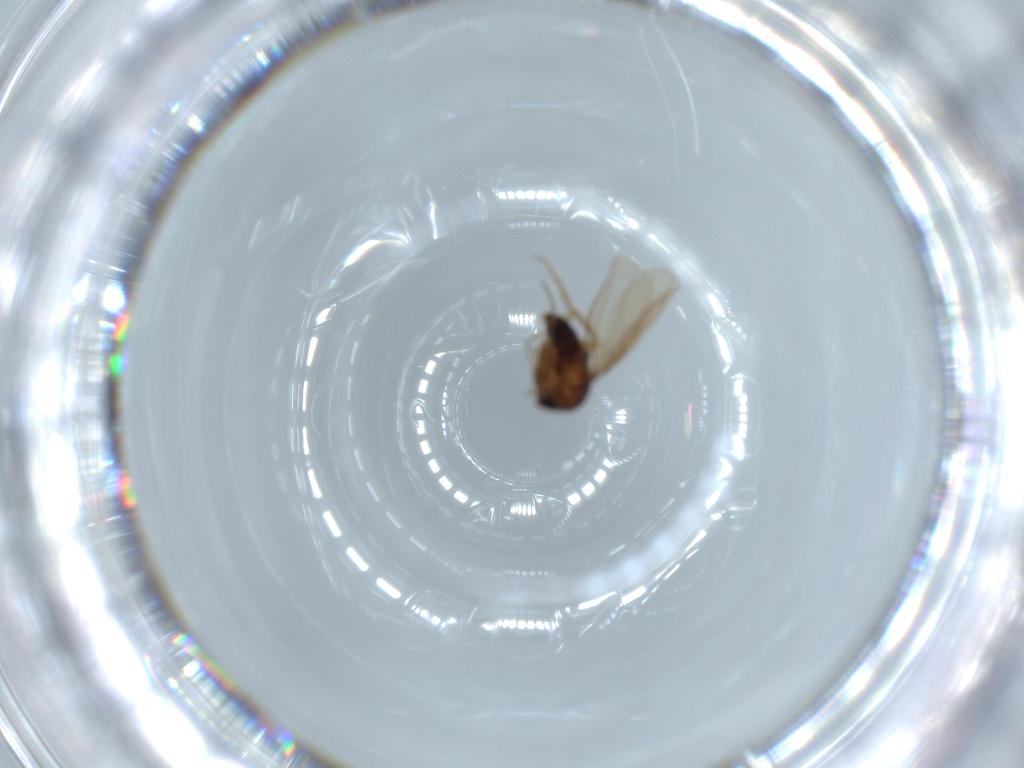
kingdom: Animalia
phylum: Arthropoda
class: Insecta
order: Diptera
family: Phoridae
